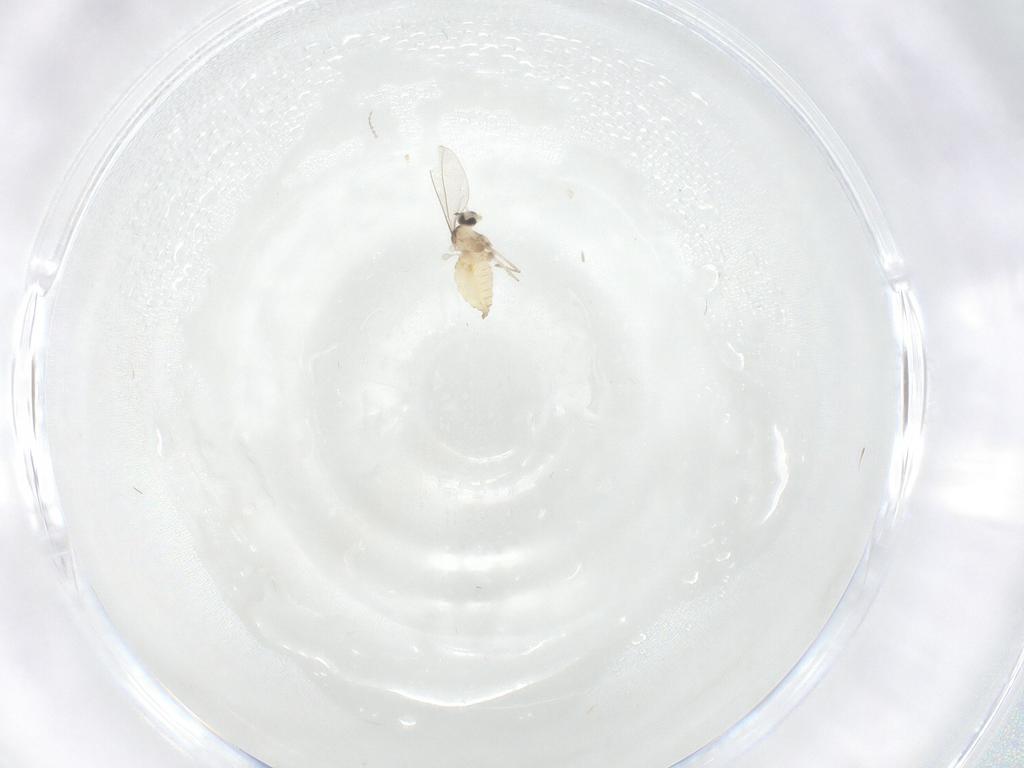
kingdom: Animalia
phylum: Arthropoda
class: Insecta
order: Diptera
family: Cecidomyiidae
